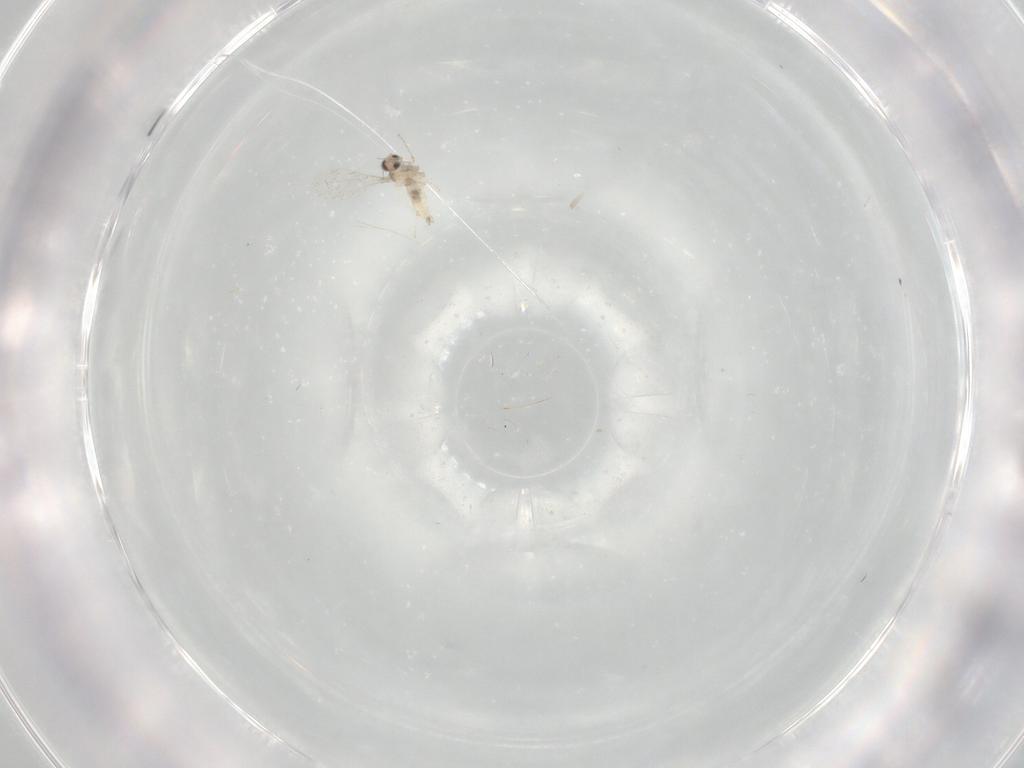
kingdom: Animalia
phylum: Arthropoda
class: Insecta
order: Diptera
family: Cecidomyiidae
